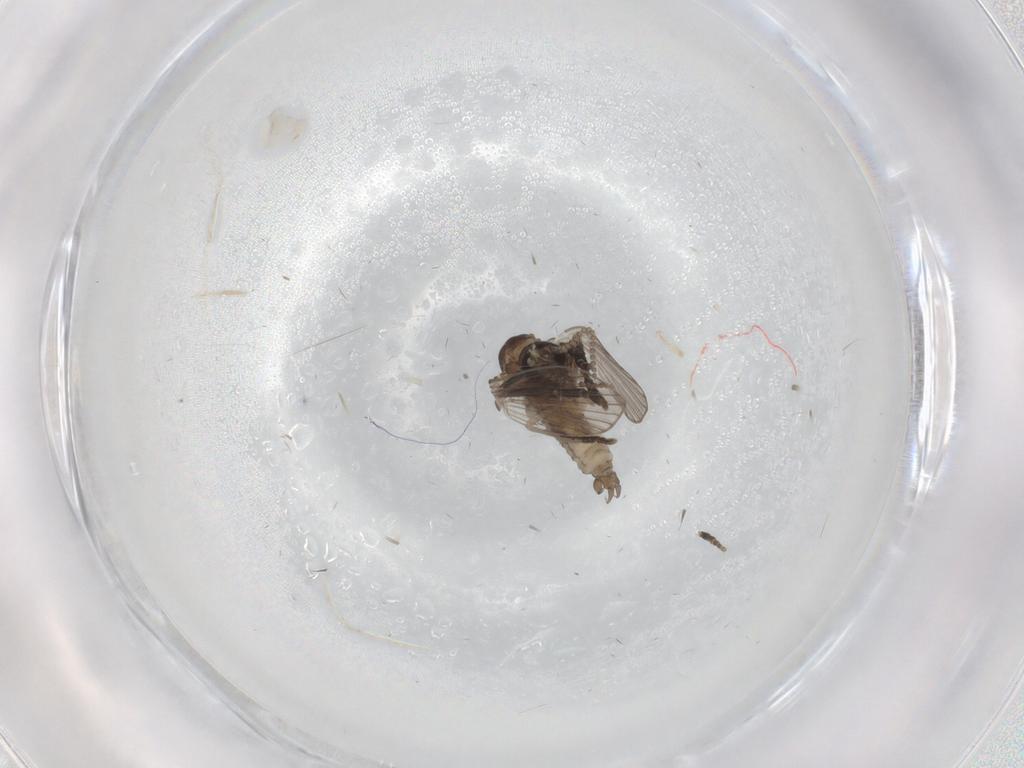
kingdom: Animalia
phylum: Arthropoda
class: Insecta
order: Diptera
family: Psychodidae
